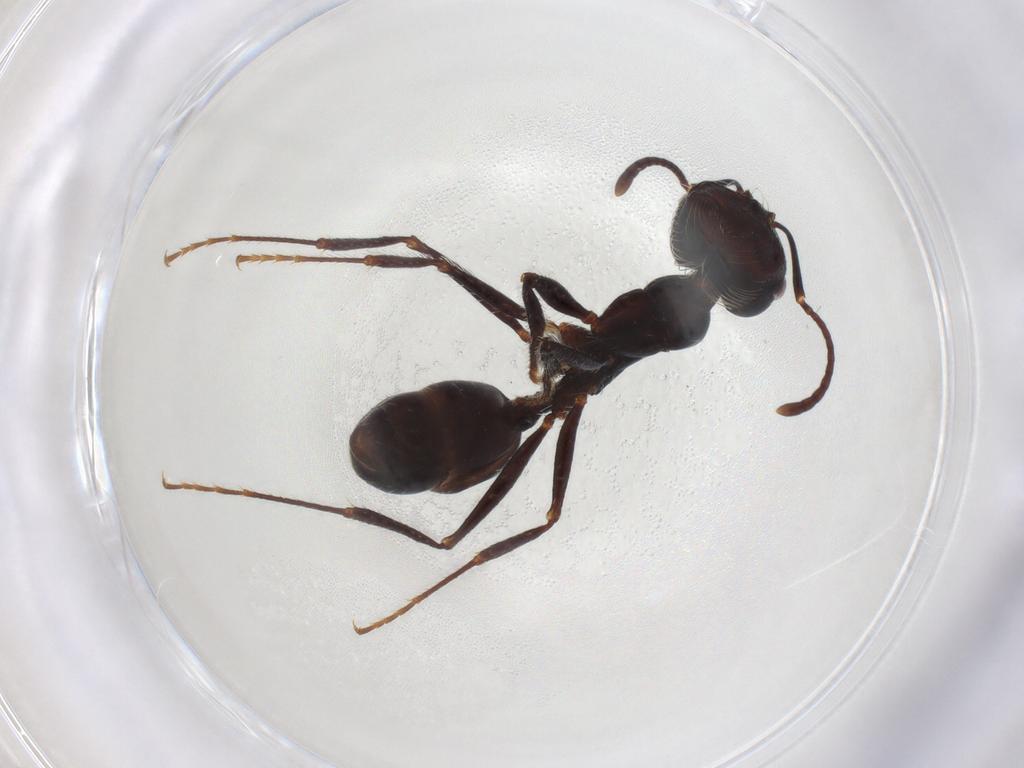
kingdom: Animalia
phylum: Arthropoda
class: Insecta
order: Hymenoptera
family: Formicidae
